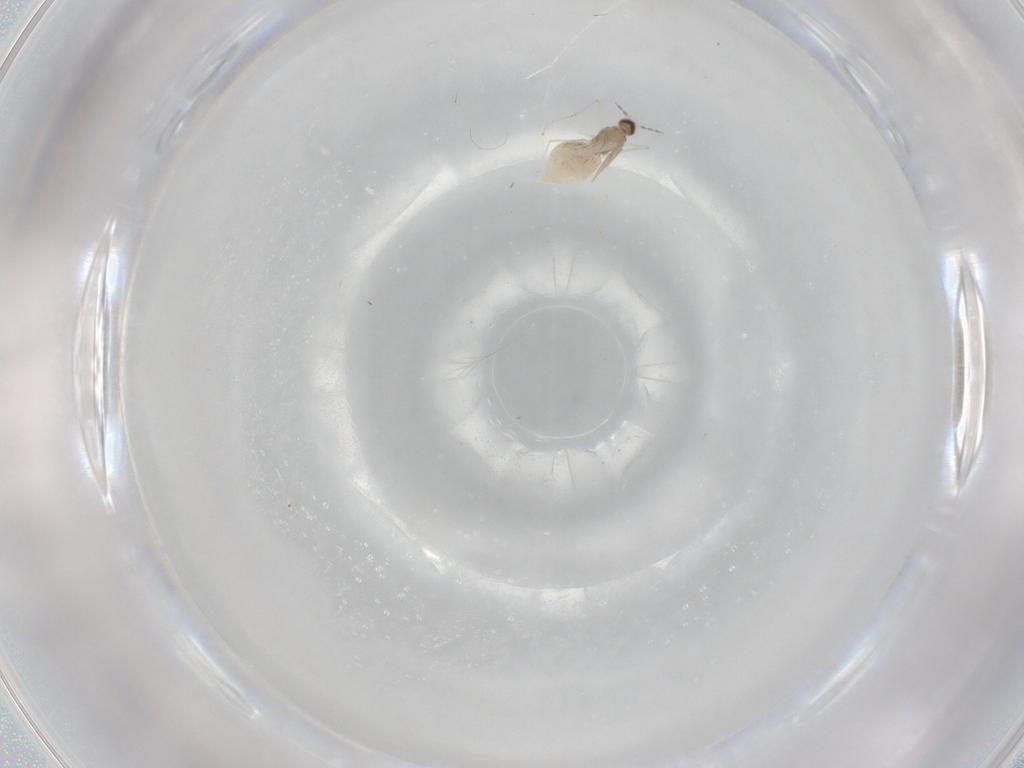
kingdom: Animalia
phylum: Arthropoda
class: Insecta
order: Diptera
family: Cecidomyiidae
